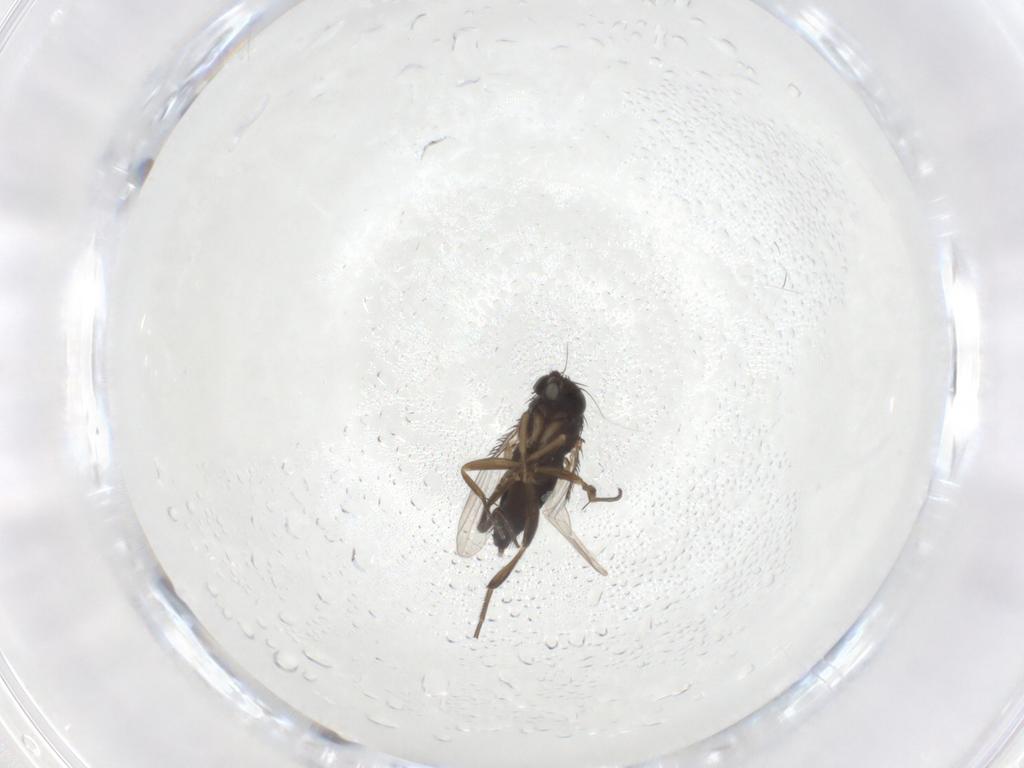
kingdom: Animalia
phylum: Arthropoda
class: Insecta
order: Diptera
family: Phoridae
